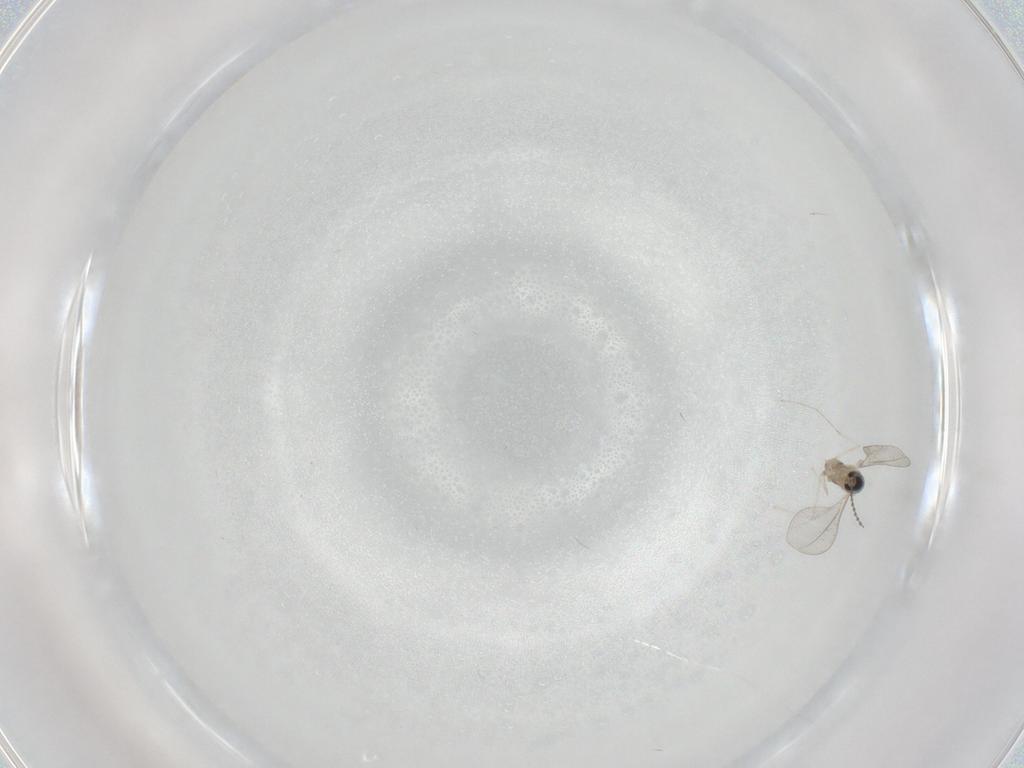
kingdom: Animalia
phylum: Arthropoda
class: Insecta
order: Diptera
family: Cecidomyiidae
